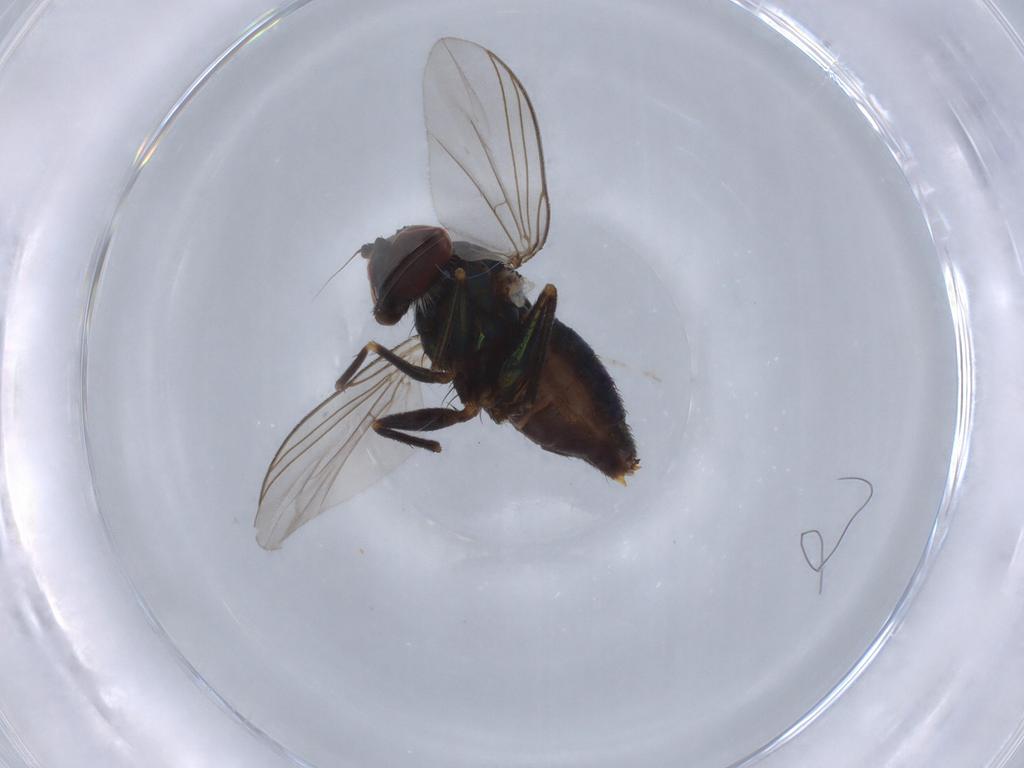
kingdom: Animalia
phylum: Arthropoda
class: Insecta
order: Diptera
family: Dolichopodidae
